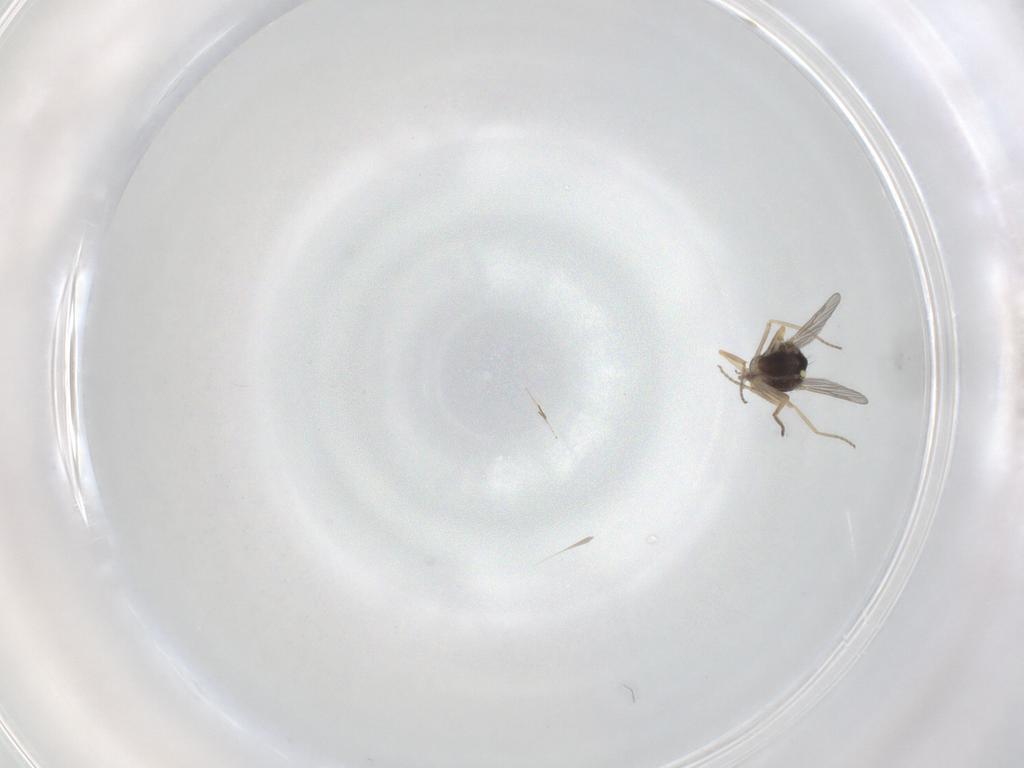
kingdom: Animalia
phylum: Arthropoda
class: Insecta
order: Diptera
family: Ceratopogonidae
